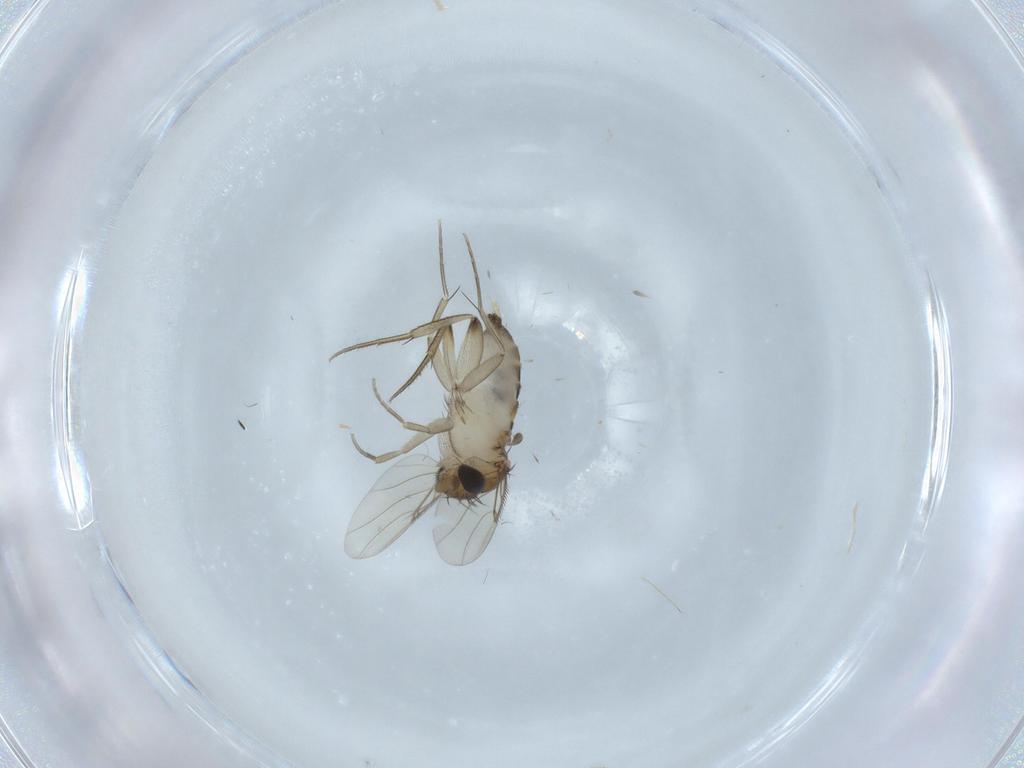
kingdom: Animalia
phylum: Arthropoda
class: Insecta
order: Diptera
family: Phoridae
